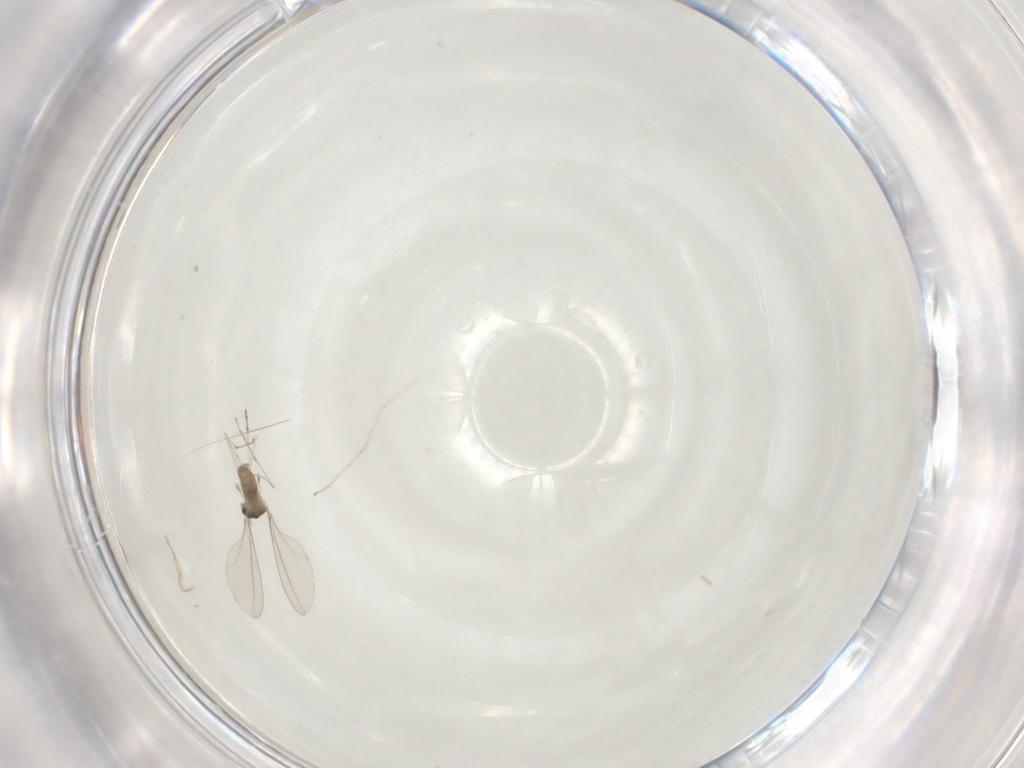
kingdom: Animalia
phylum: Arthropoda
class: Insecta
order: Diptera
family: Cecidomyiidae
